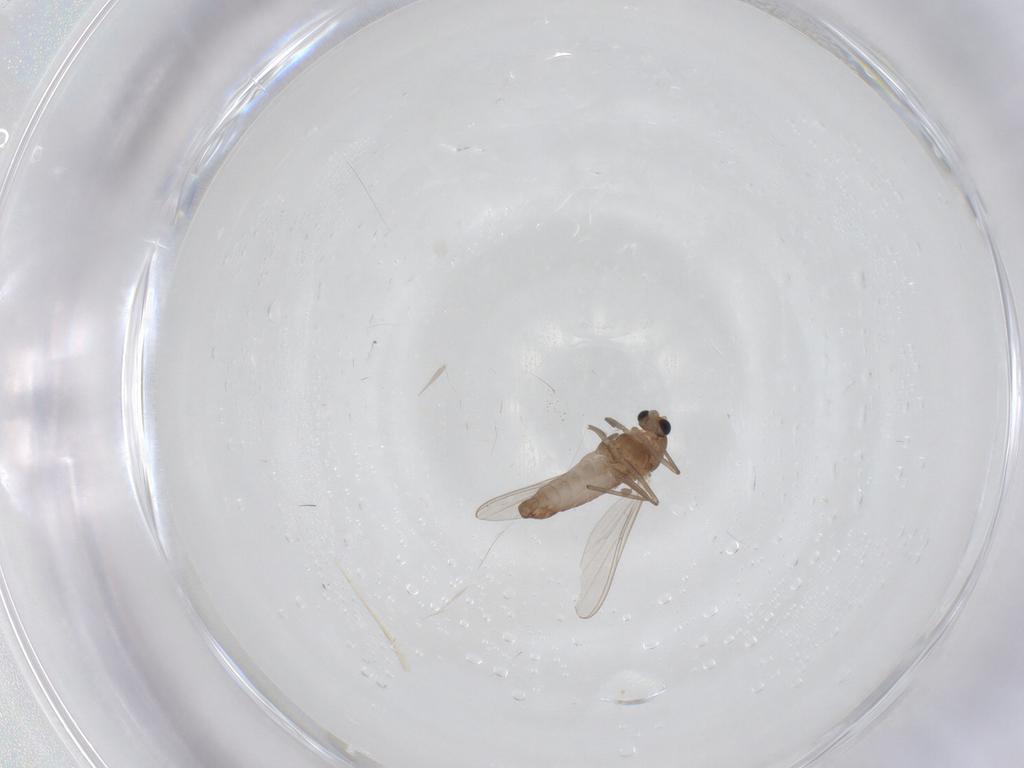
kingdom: Animalia
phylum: Arthropoda
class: Insecta
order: Diptera
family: Chironomidae
